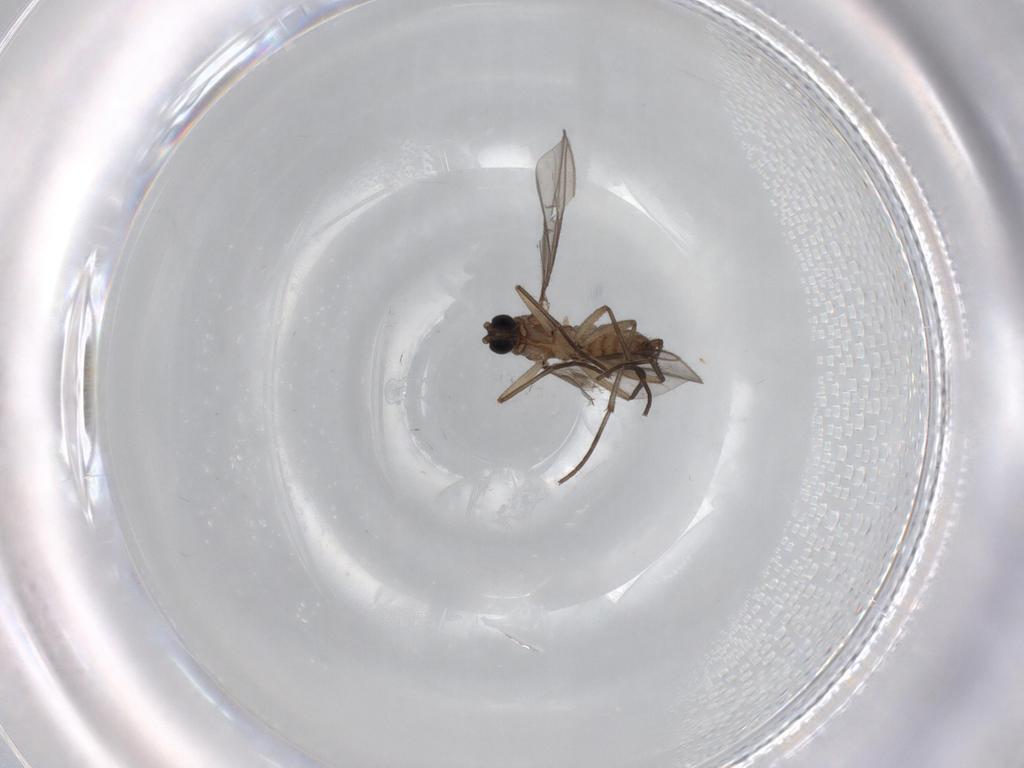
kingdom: Animalia
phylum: Arthropoda
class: Insecta
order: Diptera
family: Sciaridae
